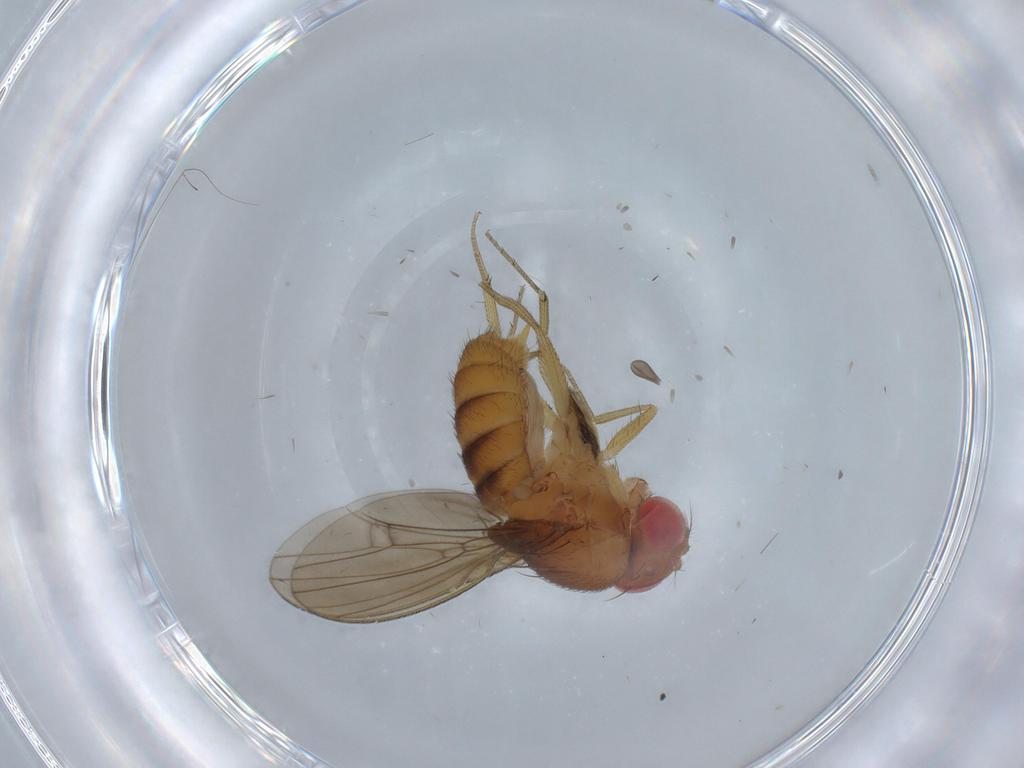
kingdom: Animalia
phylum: Arthropoda
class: Insecta
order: Diptera
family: Drosophilidae
